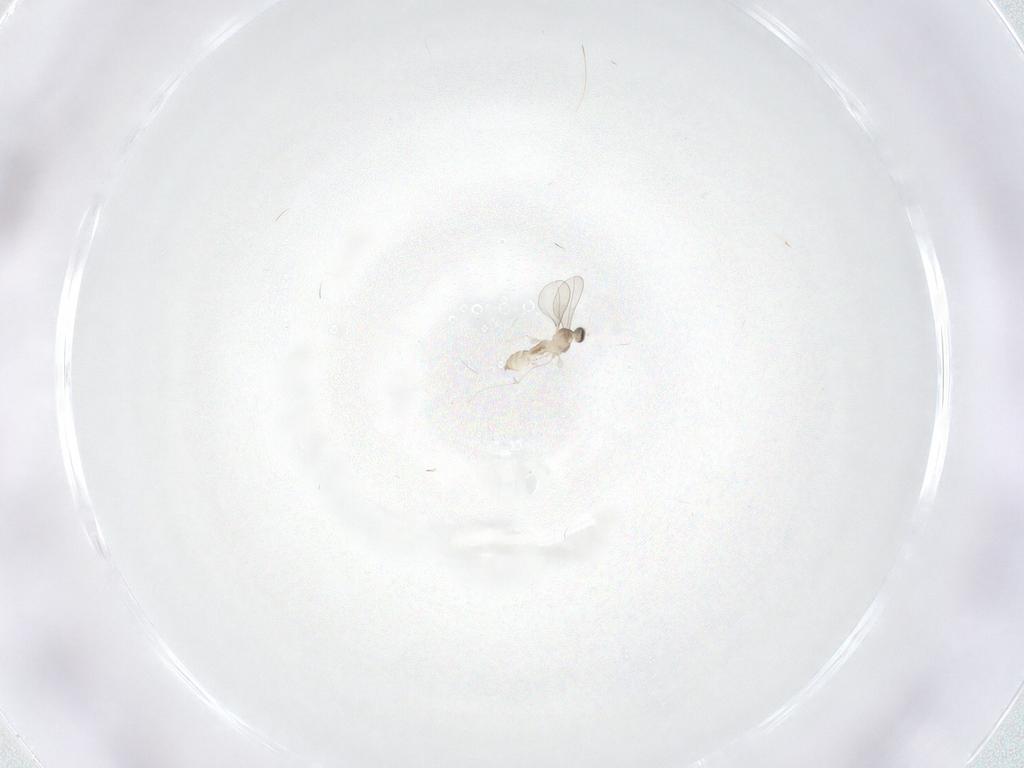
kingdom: Animalia
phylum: Arthropoda
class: Insecta
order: Diptera
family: Cecidomyiidae
